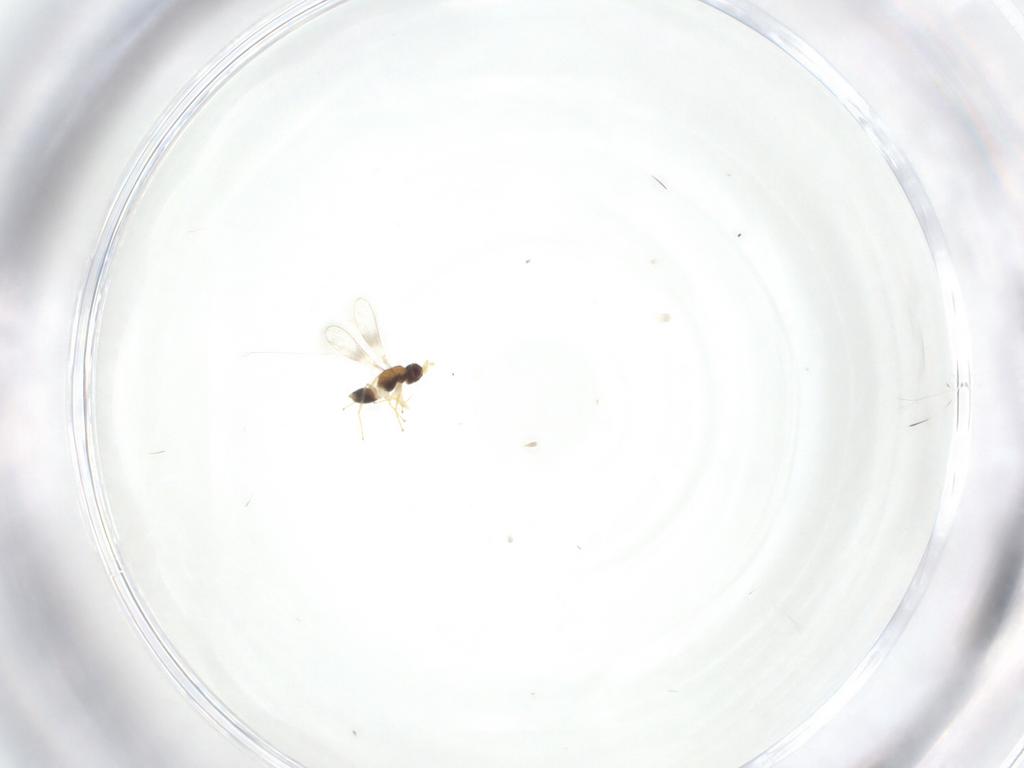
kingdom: Animalia
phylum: Arthropoda
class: Insecta
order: Hymenoptera
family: Mymaridae
